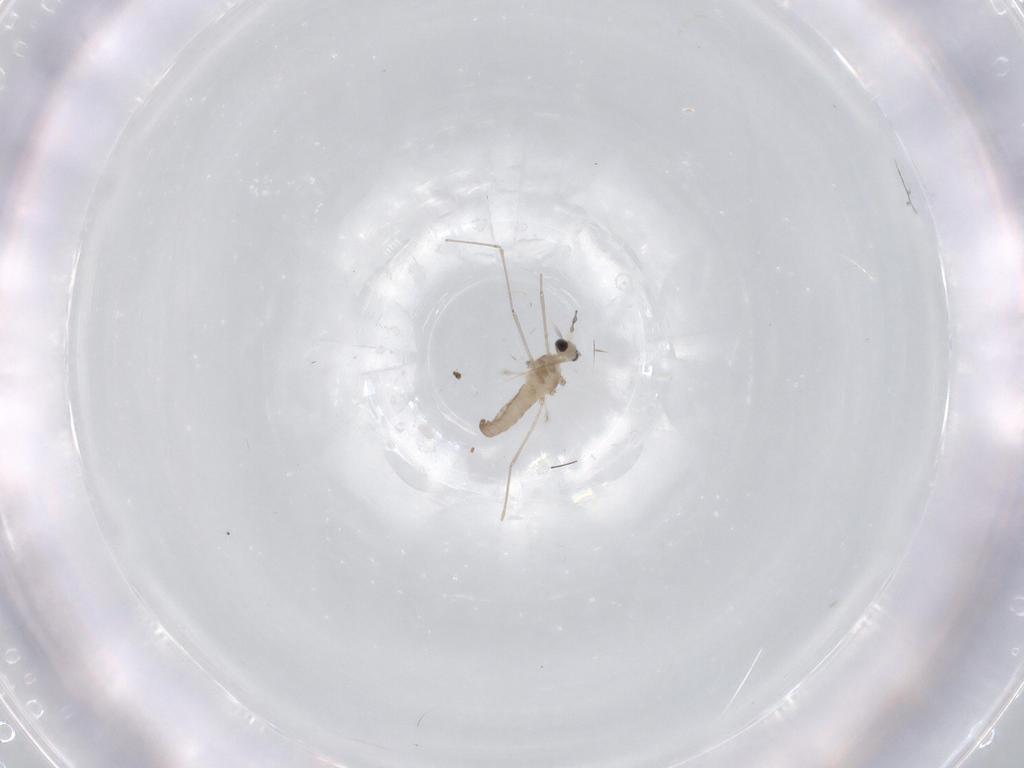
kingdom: Animalia
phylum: Arthropoda
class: Insecta
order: Diptera
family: Cecidomyiidae
